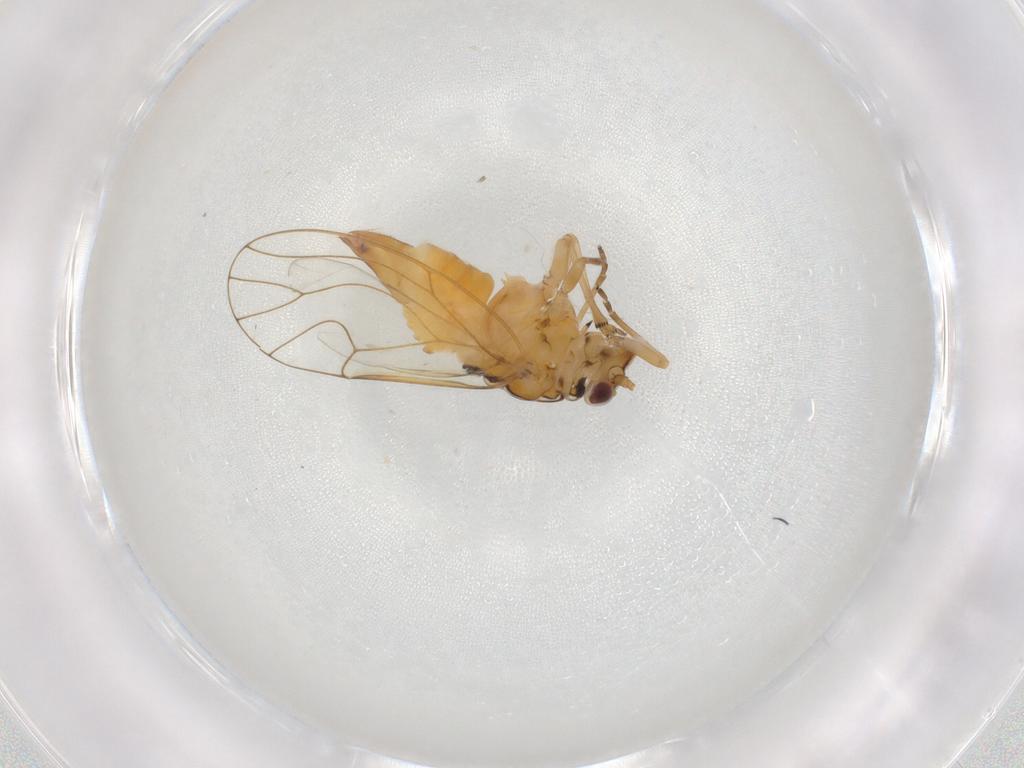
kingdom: Animalia
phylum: Arthropoda
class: Insecta
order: Hemiptera
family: Psylloidea_incertae_sedis
